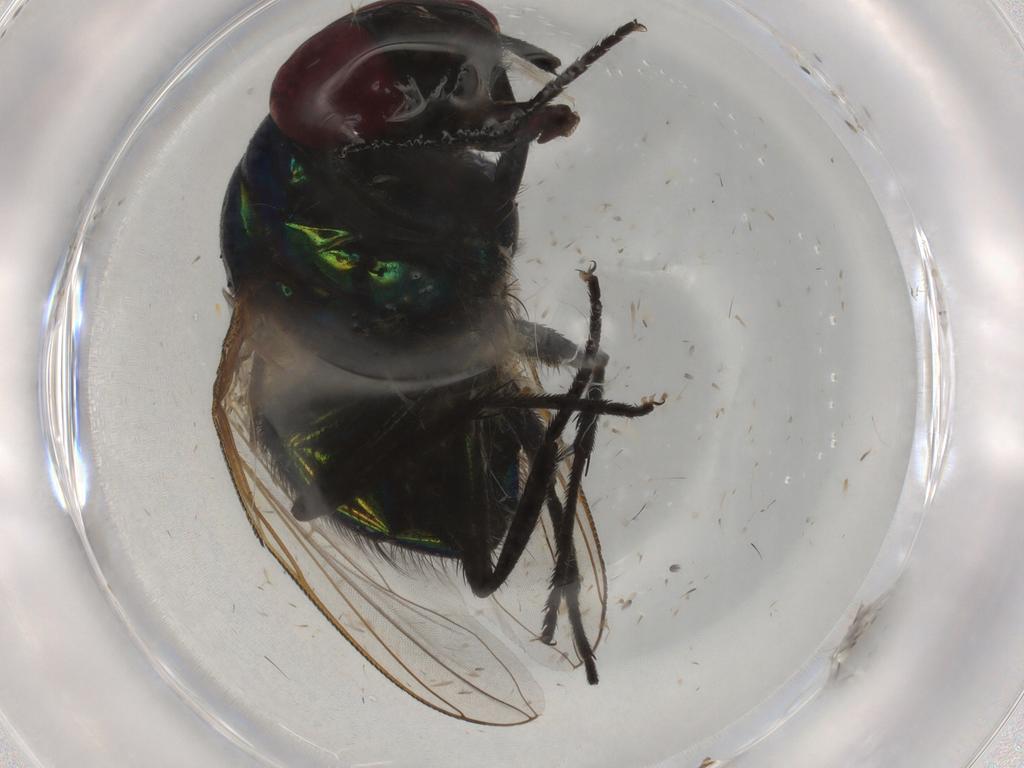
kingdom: Animalia
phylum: Arthropoda
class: Insecta
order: Diptera
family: Muscidae
